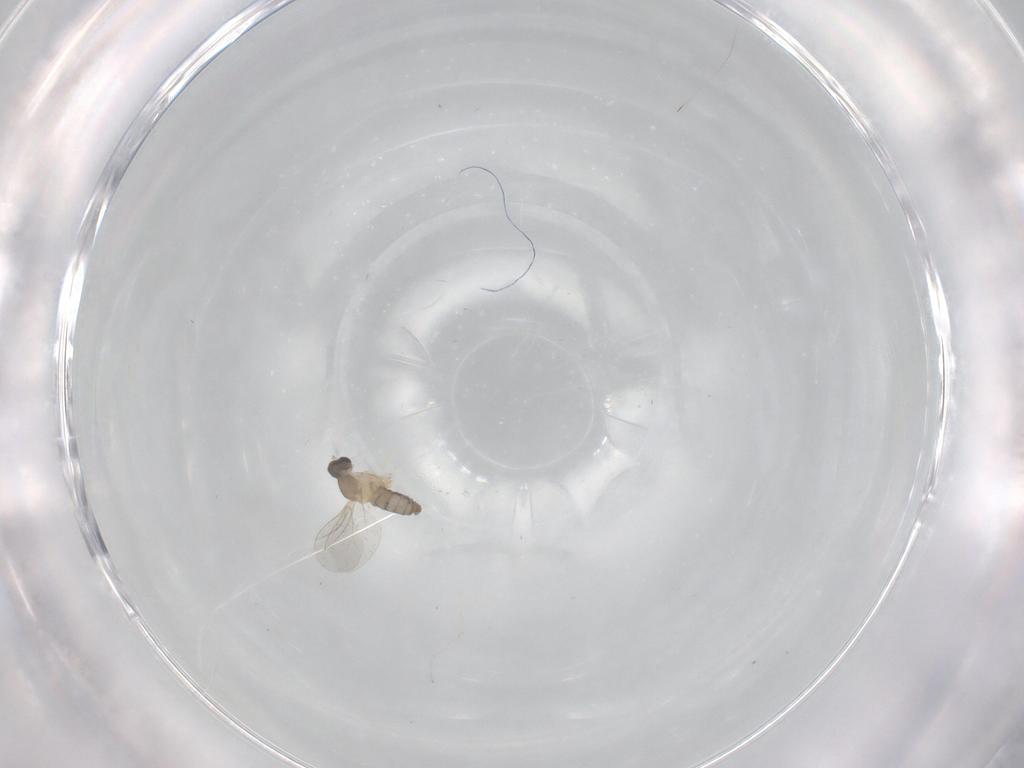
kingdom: Animalia
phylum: Arthropoda
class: Insecta
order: Diptera
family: Cecidomyiidae
